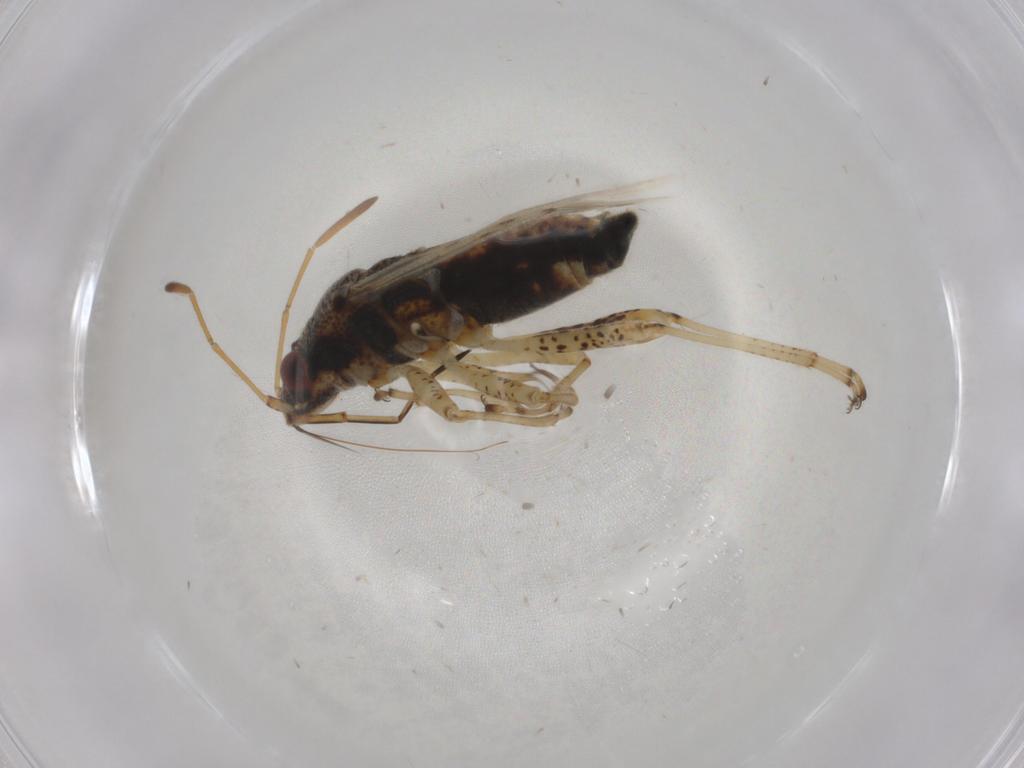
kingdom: Animalia
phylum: Arthropoda
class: Insecta
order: Hemiptera
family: Lygaeidae
